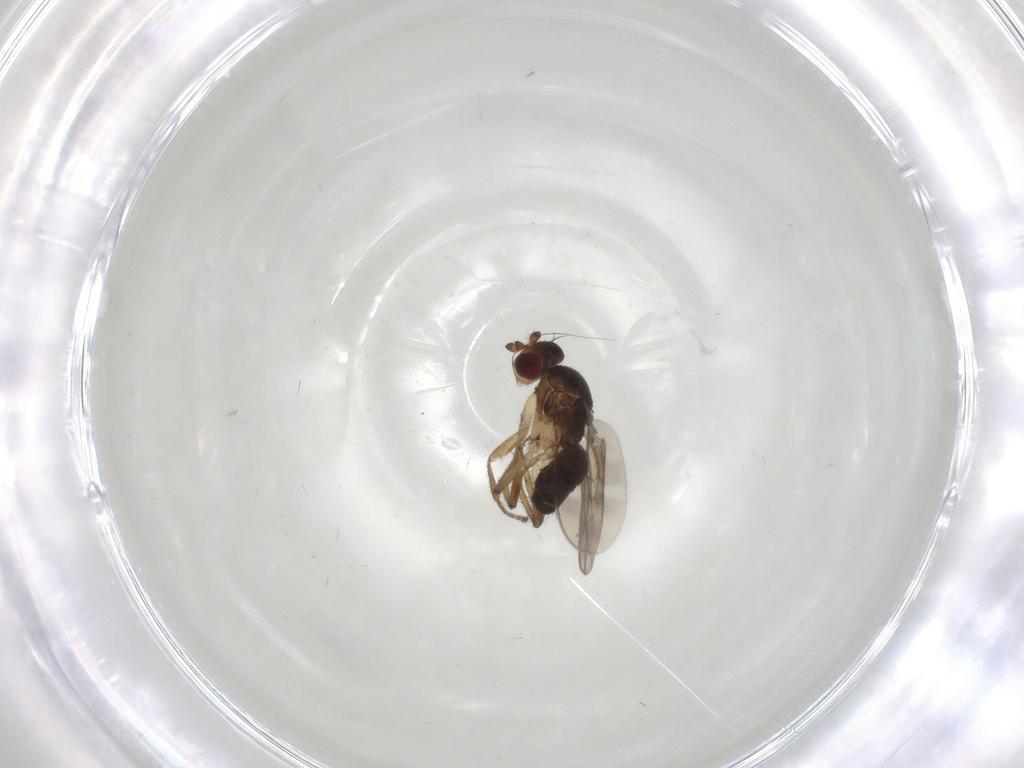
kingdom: Animalia
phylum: Arthropoda
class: Insecta
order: Diptera
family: Sphaeroceridae
